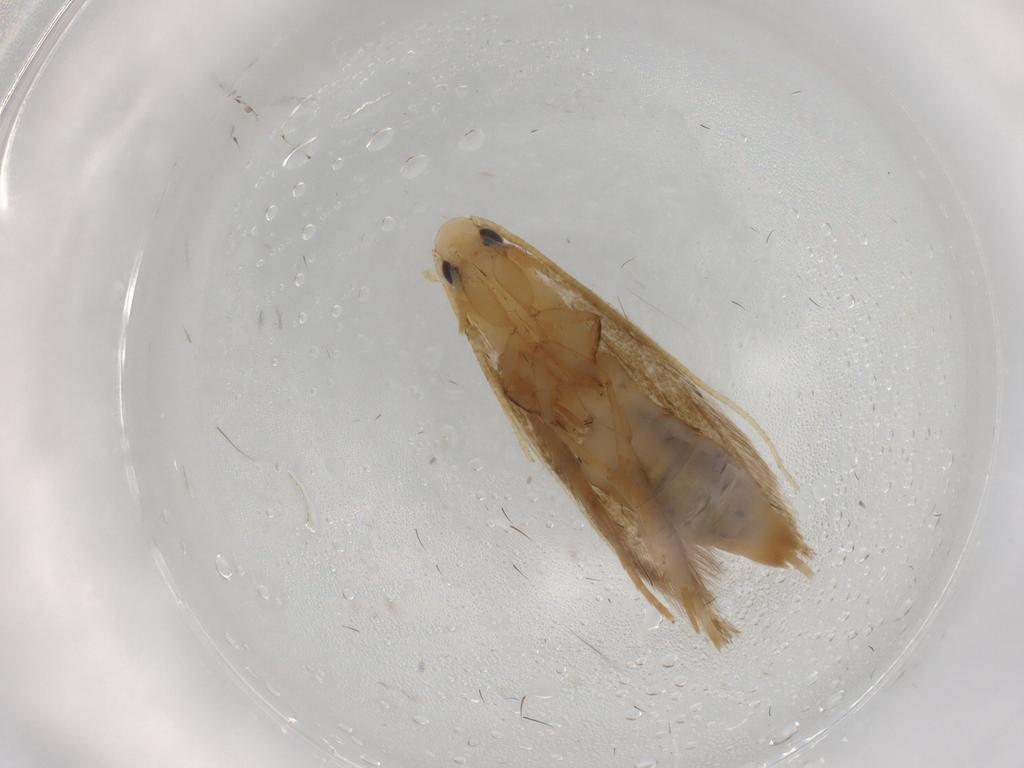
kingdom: Animalia
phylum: Arthropoda
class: Insecta
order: Lepidoptera
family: Tineidae
